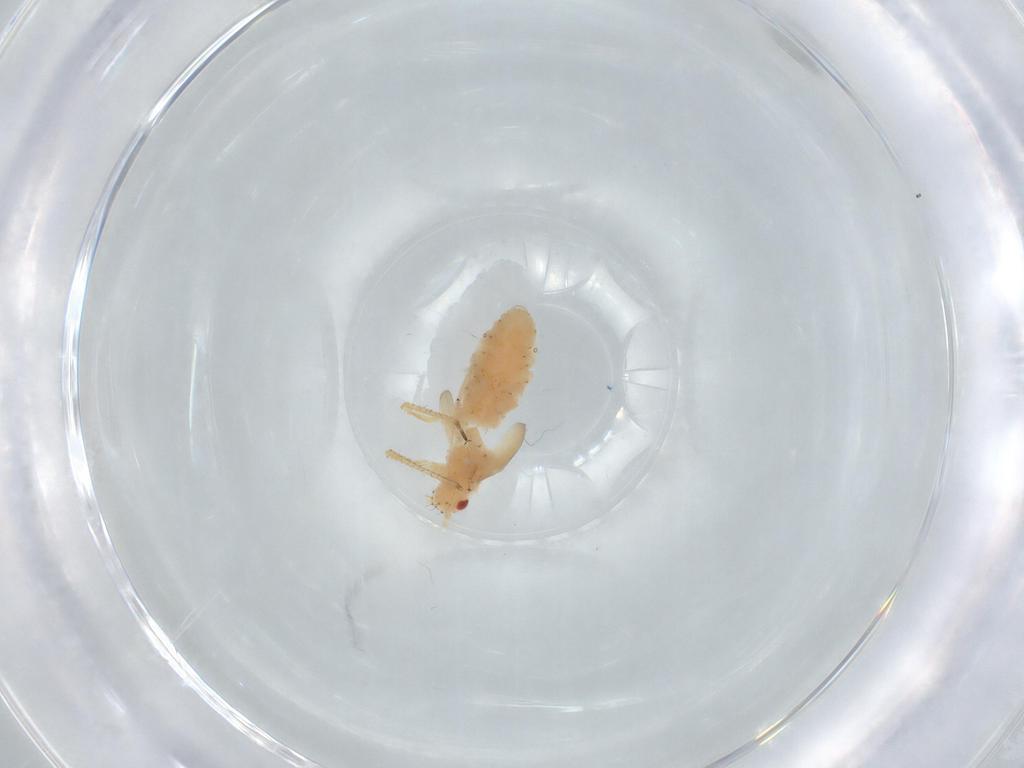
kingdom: Animalia
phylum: Arthropoda
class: Insecta
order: Hemiptera
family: Aphididae
